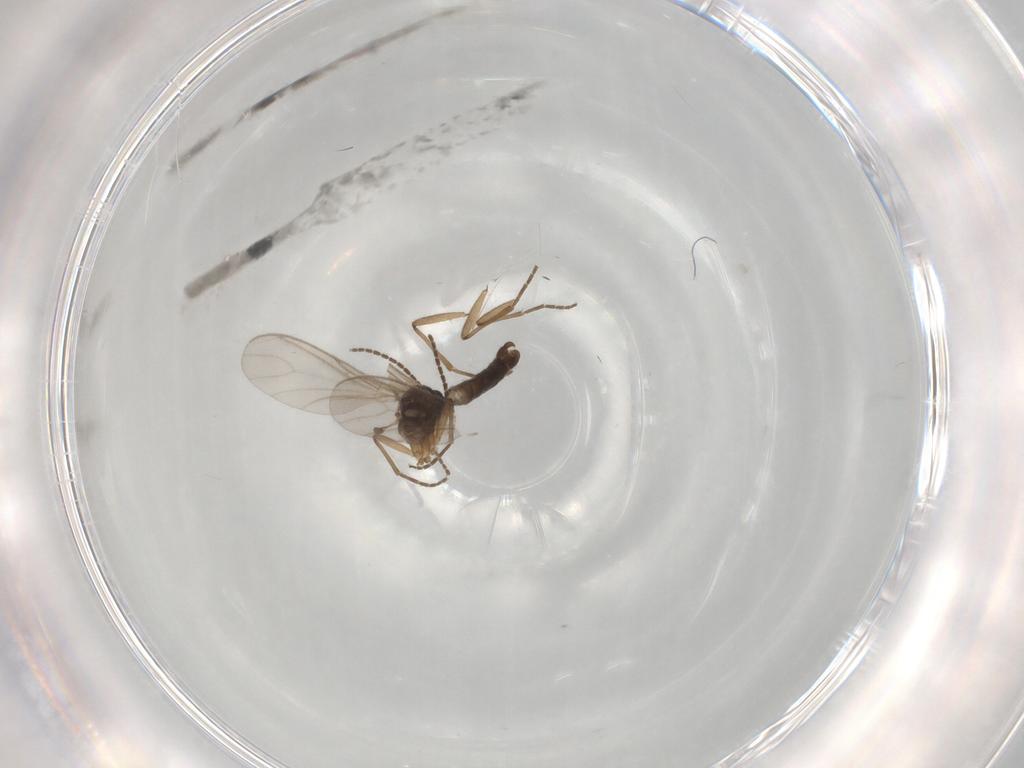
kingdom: Animalia
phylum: Arthropoda
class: Insecta
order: Diptera
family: Sciaridae
